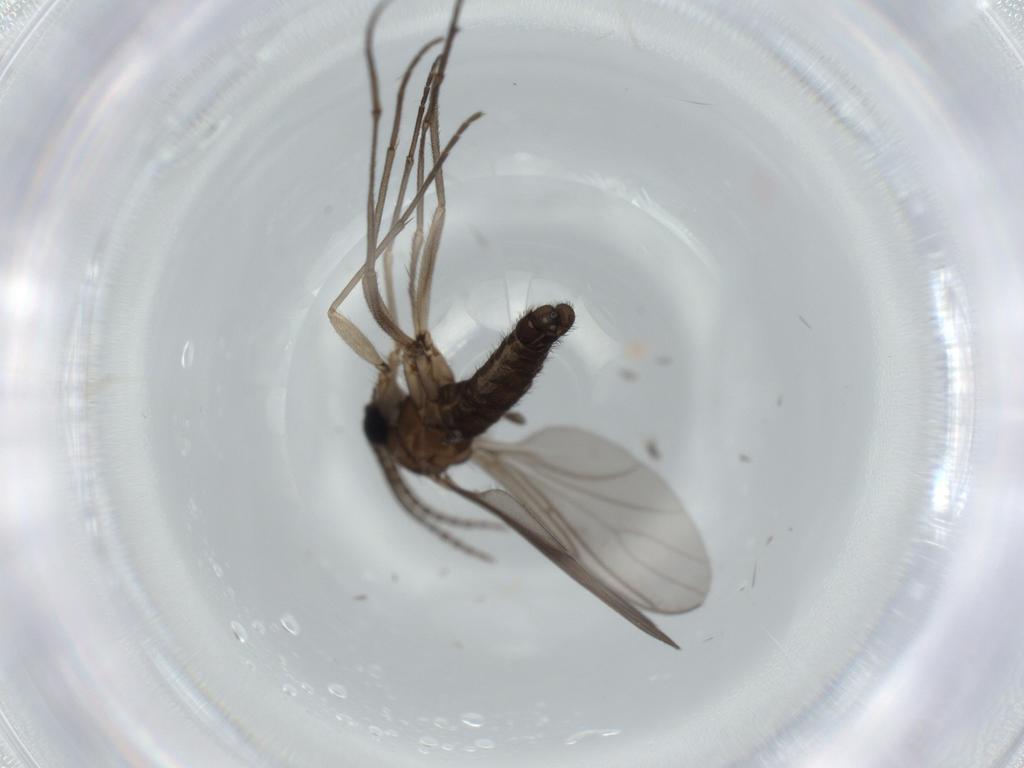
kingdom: Animalia
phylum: Arthropoda
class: Insecta
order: Diptera
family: Sciaridae
